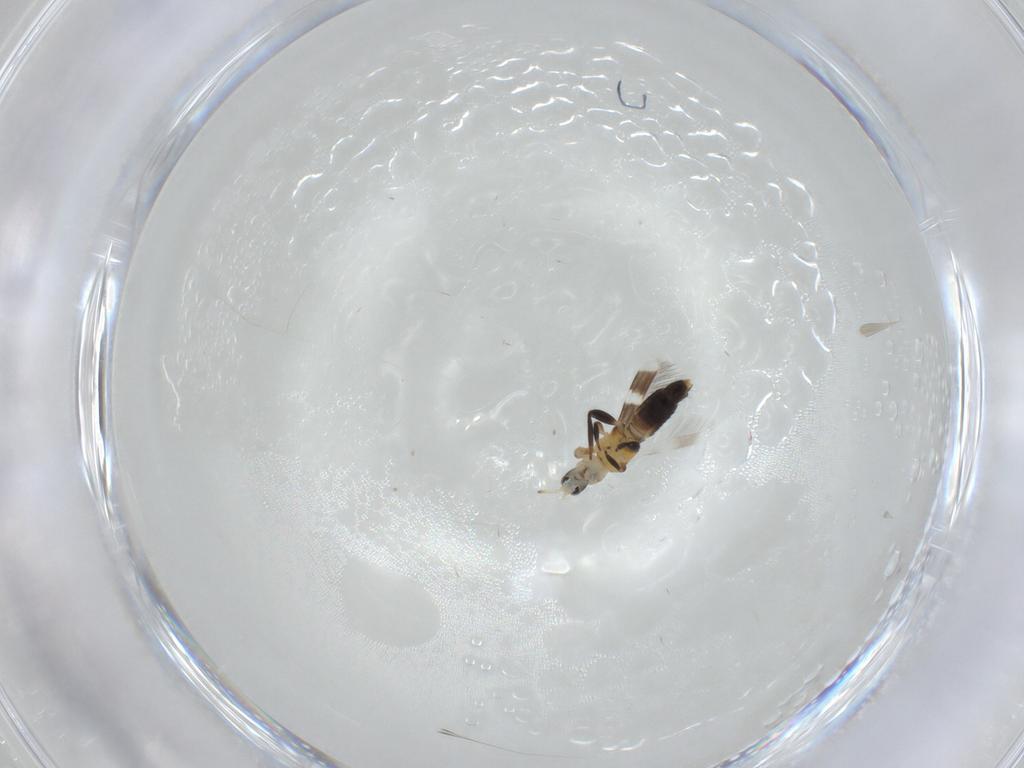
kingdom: Animalia
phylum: Arthropoda
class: Insecta
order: Thysanoptera
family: Aeolothripidae
